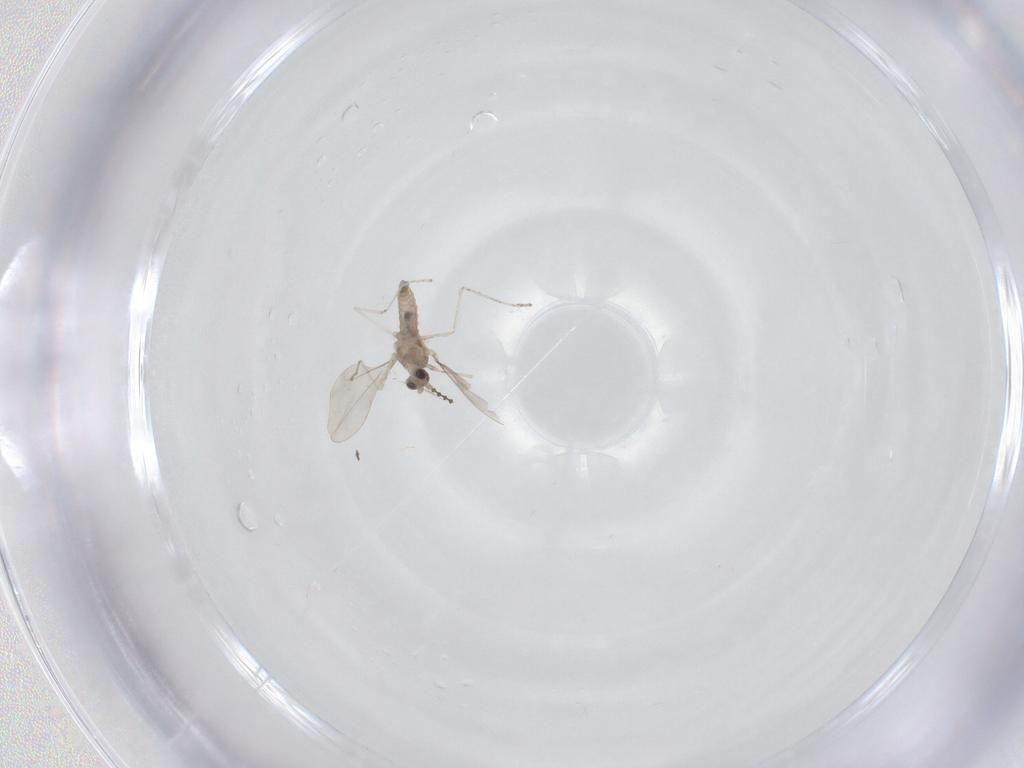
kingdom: Animalia
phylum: Arthropoda
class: Insecta
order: Diptera
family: Cecidomyiidae
